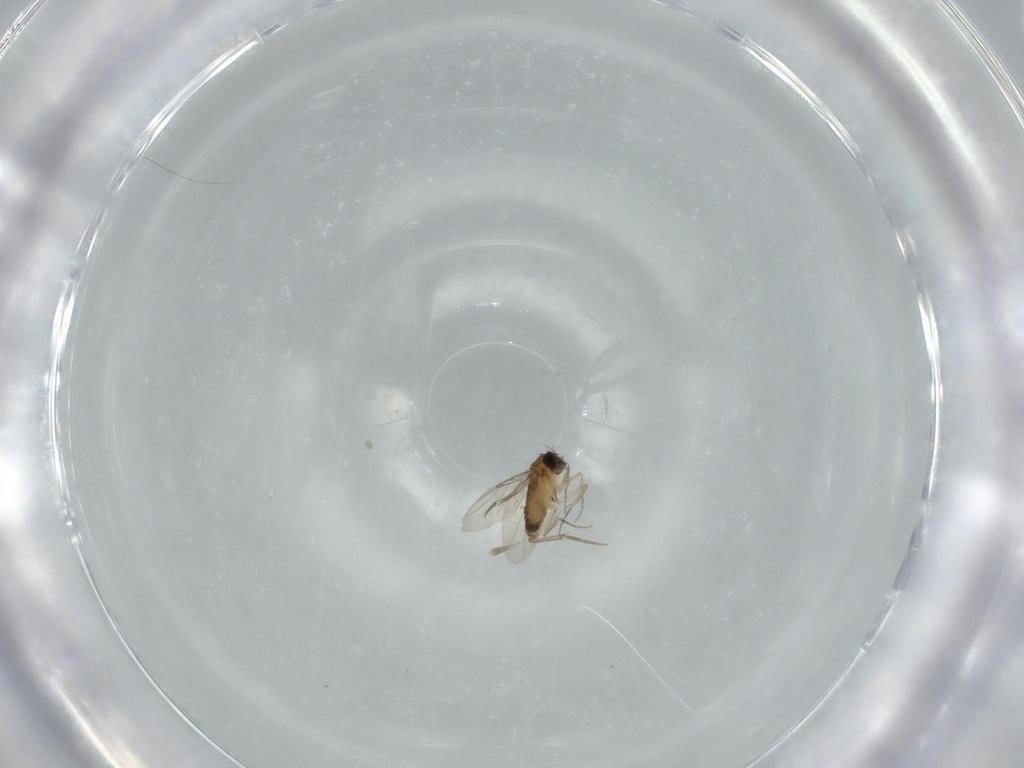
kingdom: Animalia
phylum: Arthropoda
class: Insecta
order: Diptera
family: Phoridae
